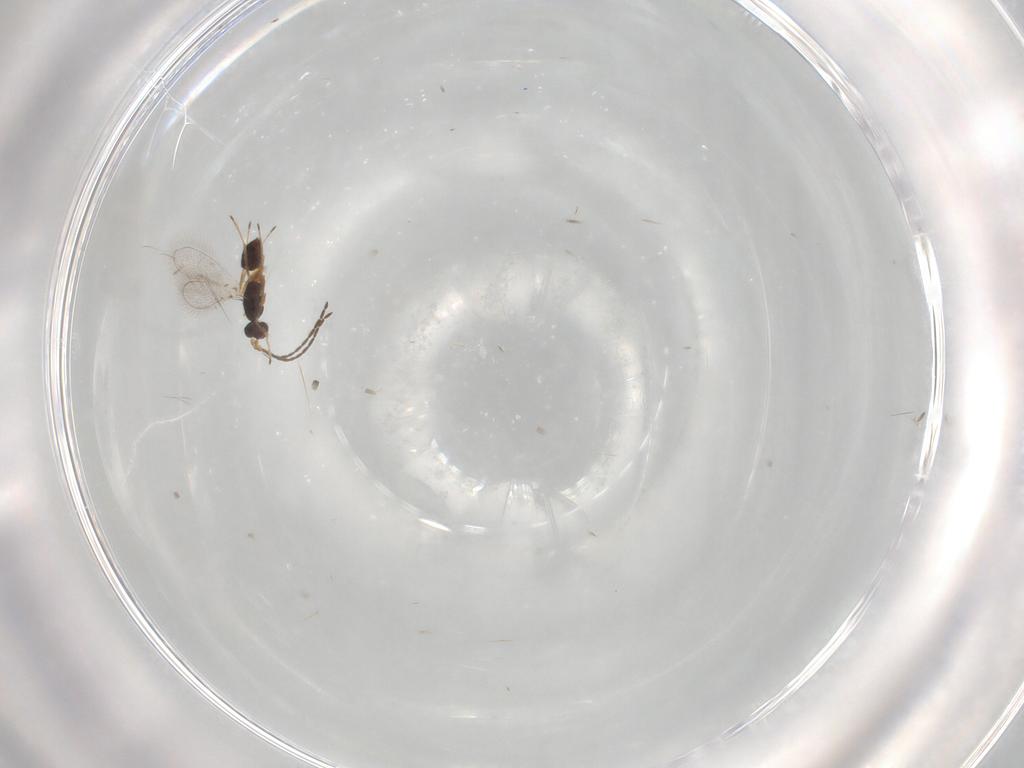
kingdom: Animalia
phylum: Arthropoda
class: Insecta
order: Hymenoptera
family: Mymaridae
